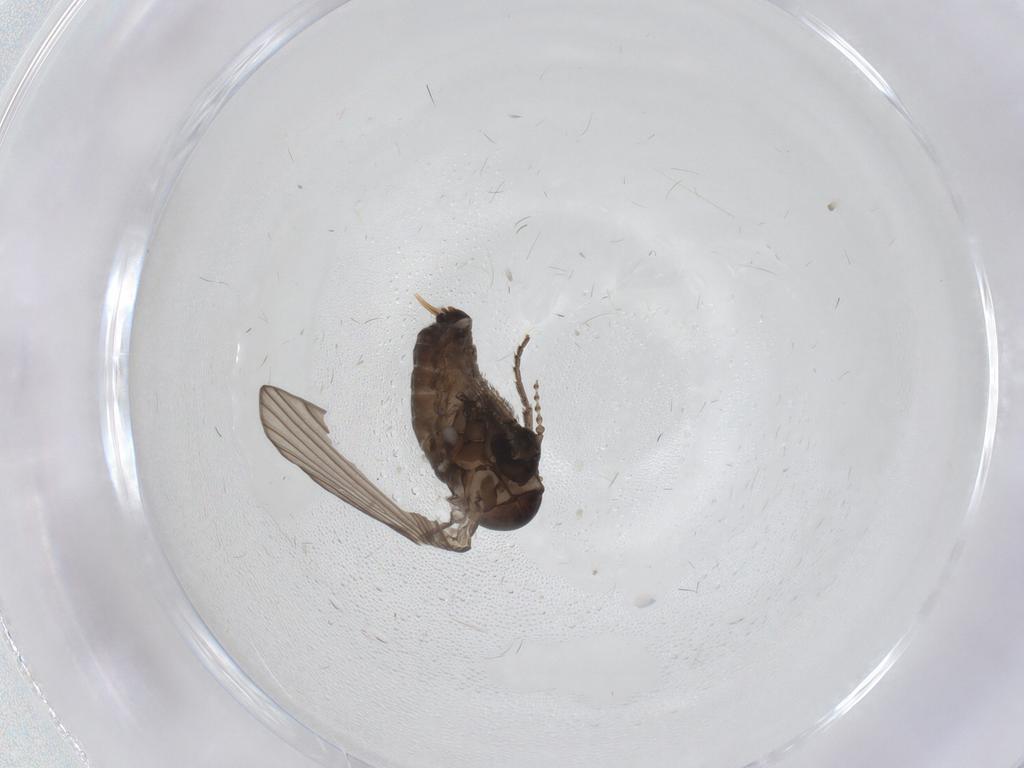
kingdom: Animalia
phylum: Arthropoda
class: Insecta
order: Diptera
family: Psychodidae
